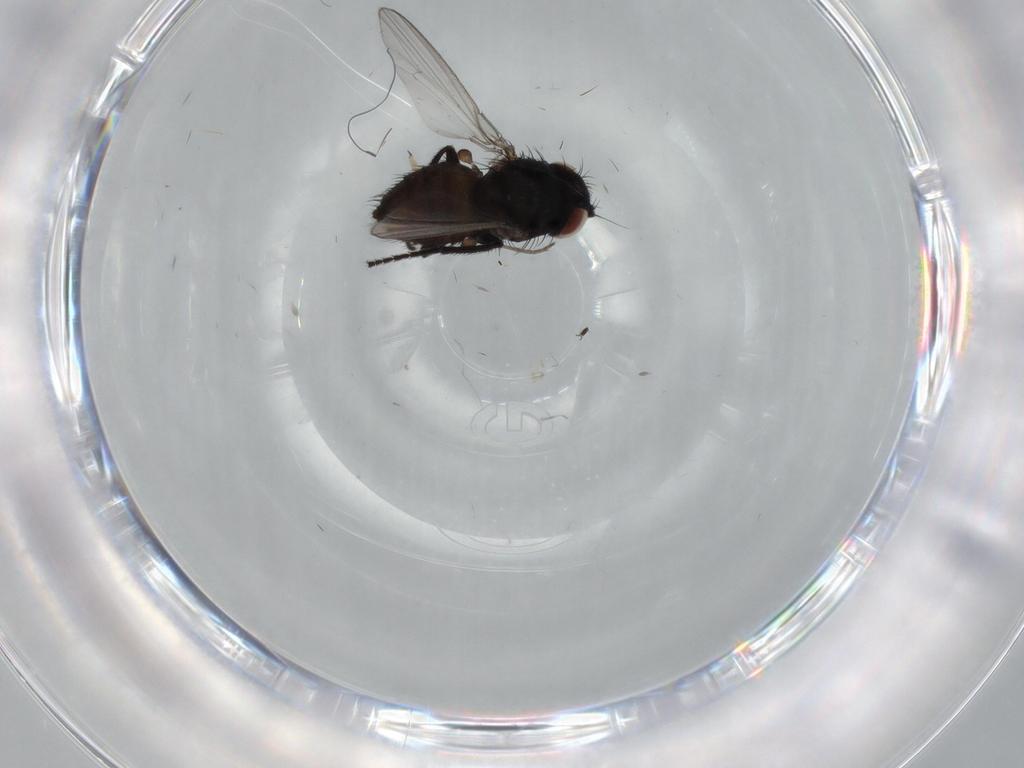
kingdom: Animalia
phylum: Arthropoda
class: Insecta
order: Diptera
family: Milichiidae
